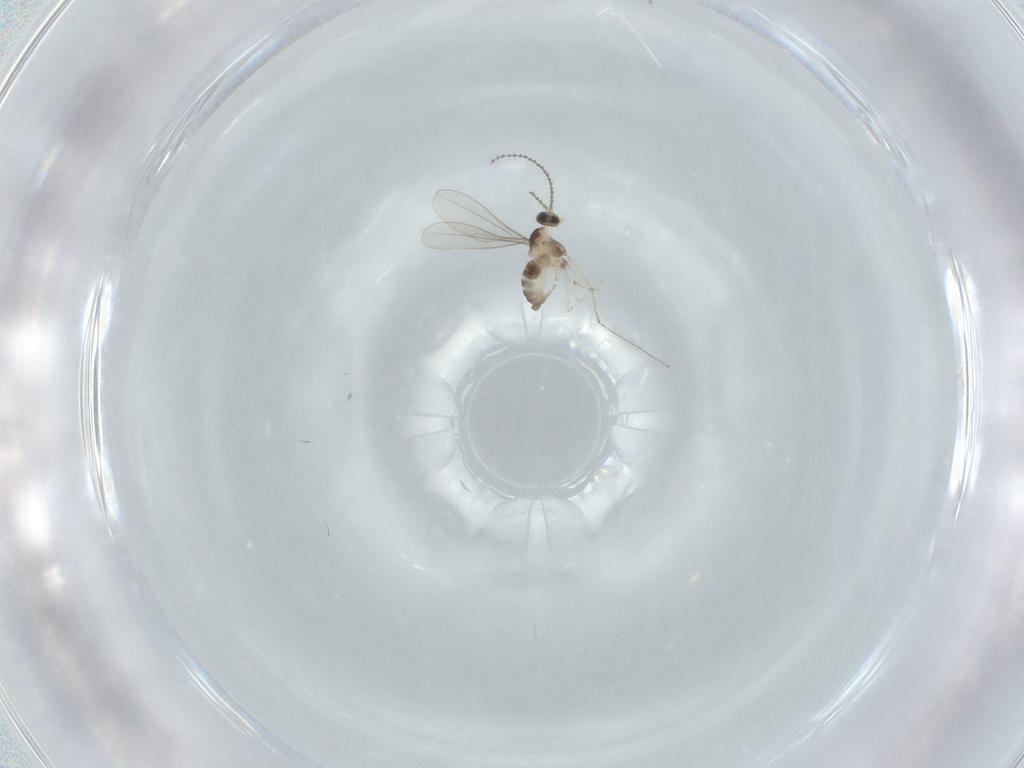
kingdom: Animalia
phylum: Arthropoda
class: Insecta
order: Diptera
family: Cecidomyiidae
